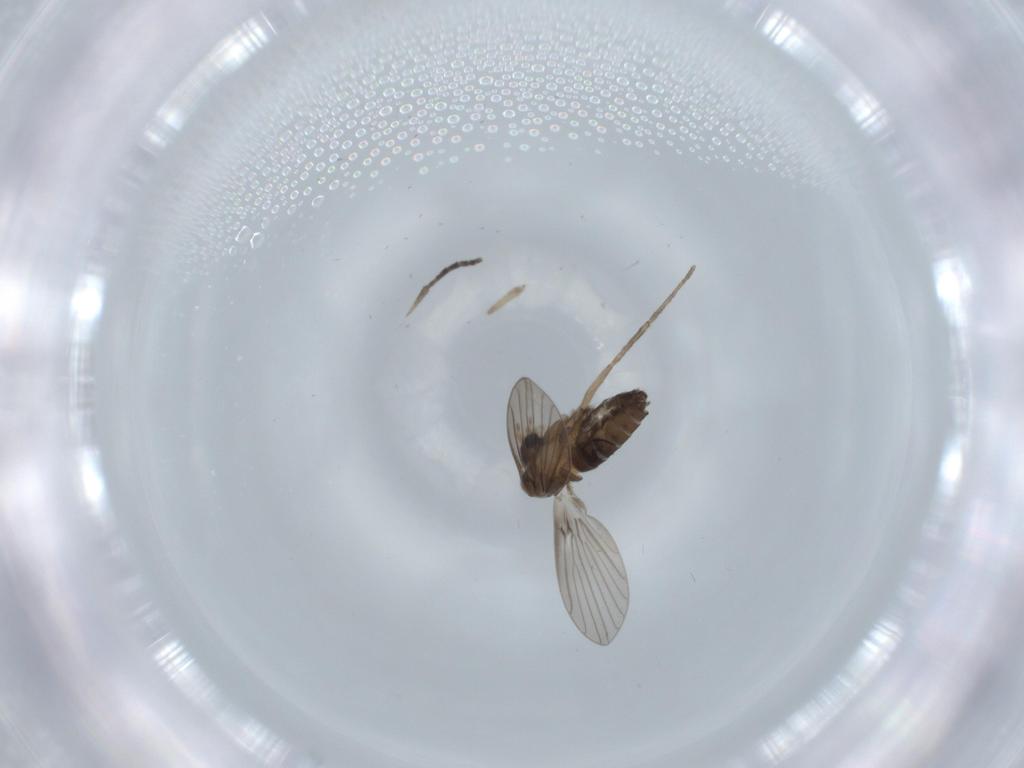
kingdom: Animalia
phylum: Arthropoda
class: Insecta
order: Diptera
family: Psychodidae
